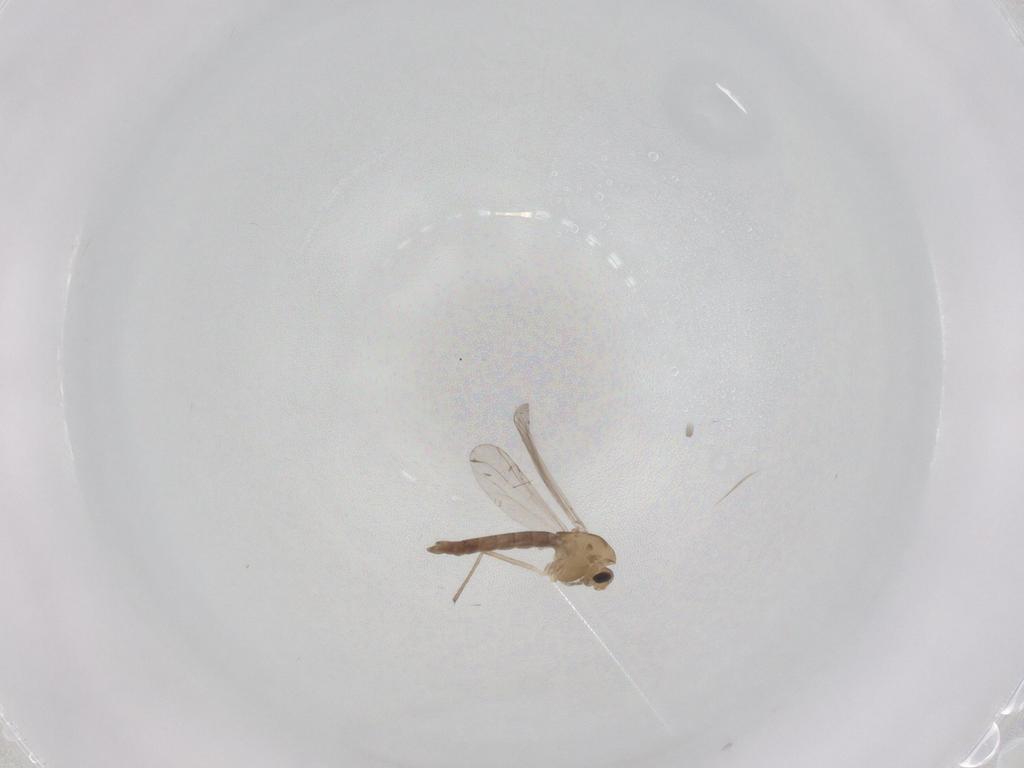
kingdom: Animalia
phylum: Arthropoda
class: Insecta
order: Diptera
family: Chironomidae
